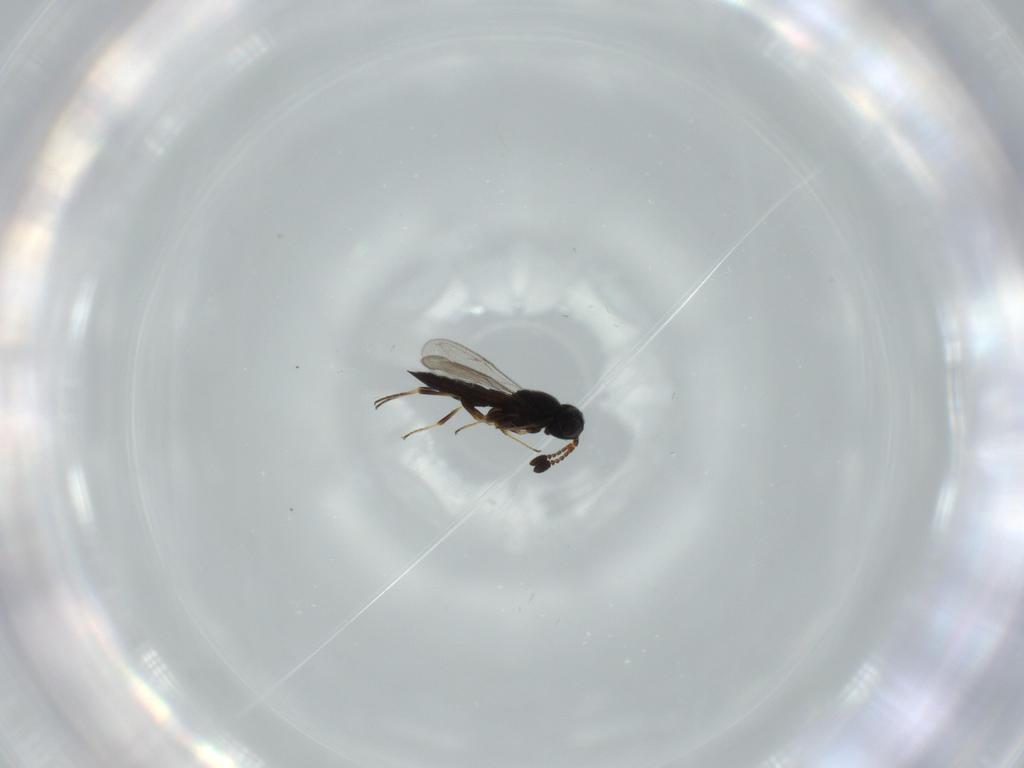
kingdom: Animalia
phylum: Arthropoda
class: Insecta
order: Hymenoptera
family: Scelionidae
